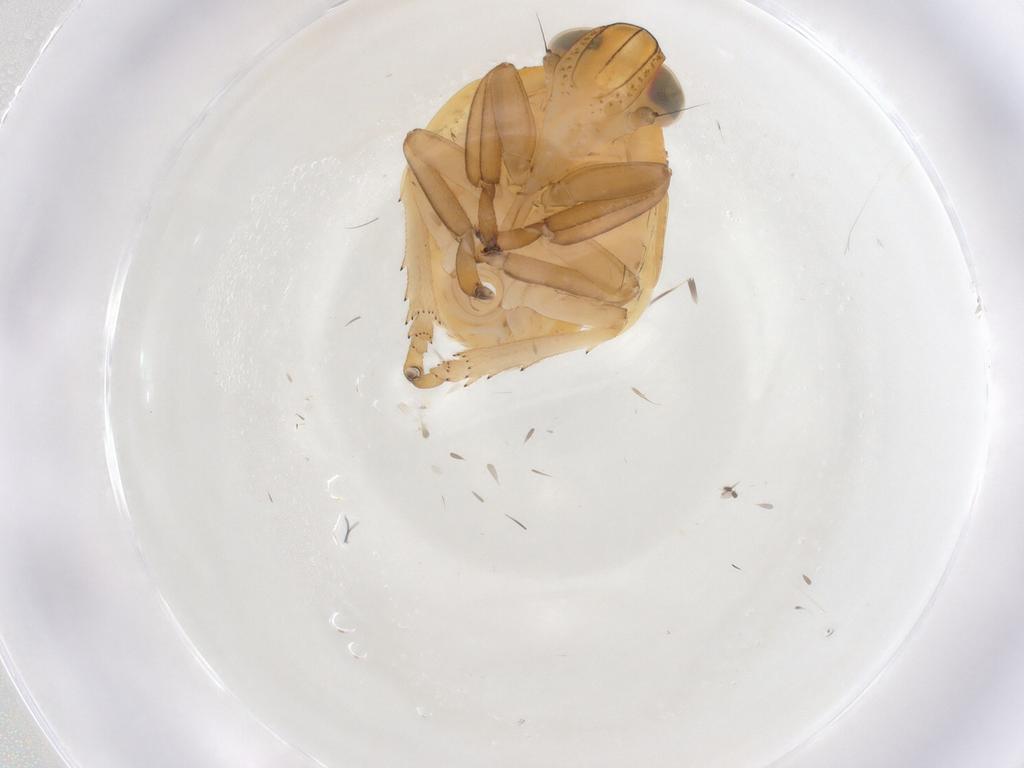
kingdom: Animalia
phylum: Arthropoda
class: Insecta
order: Hemiptera
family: Issidae
